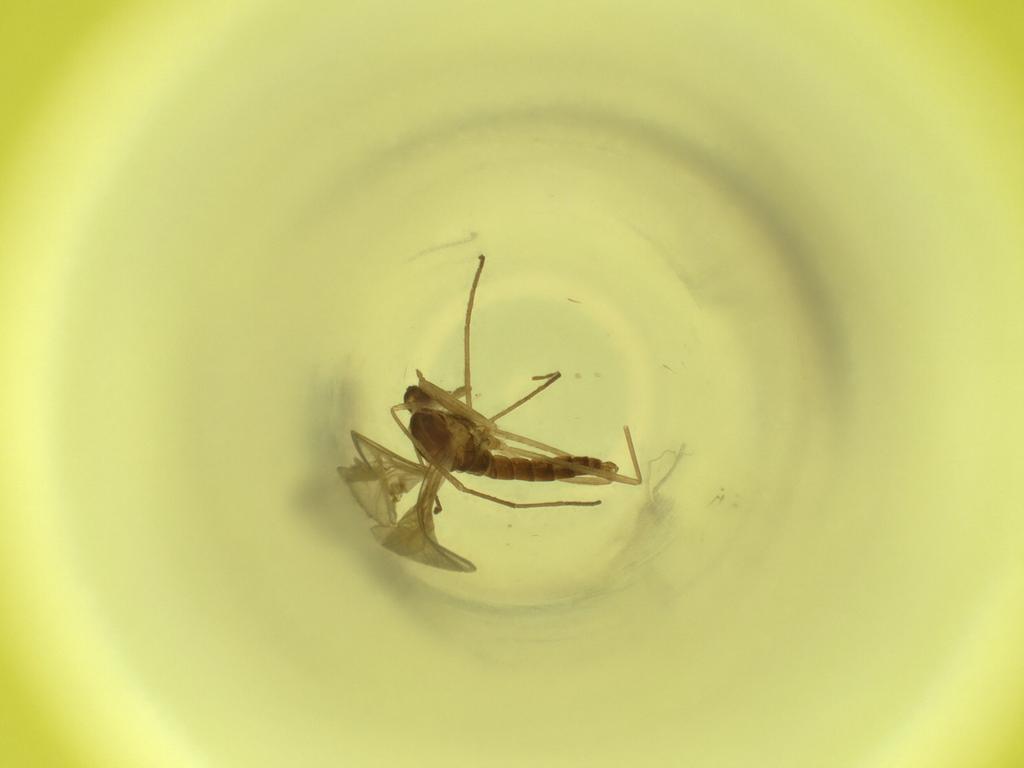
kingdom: Animalia
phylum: Arthropoda
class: Insecta
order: Diptera
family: Cecidomyiidae
